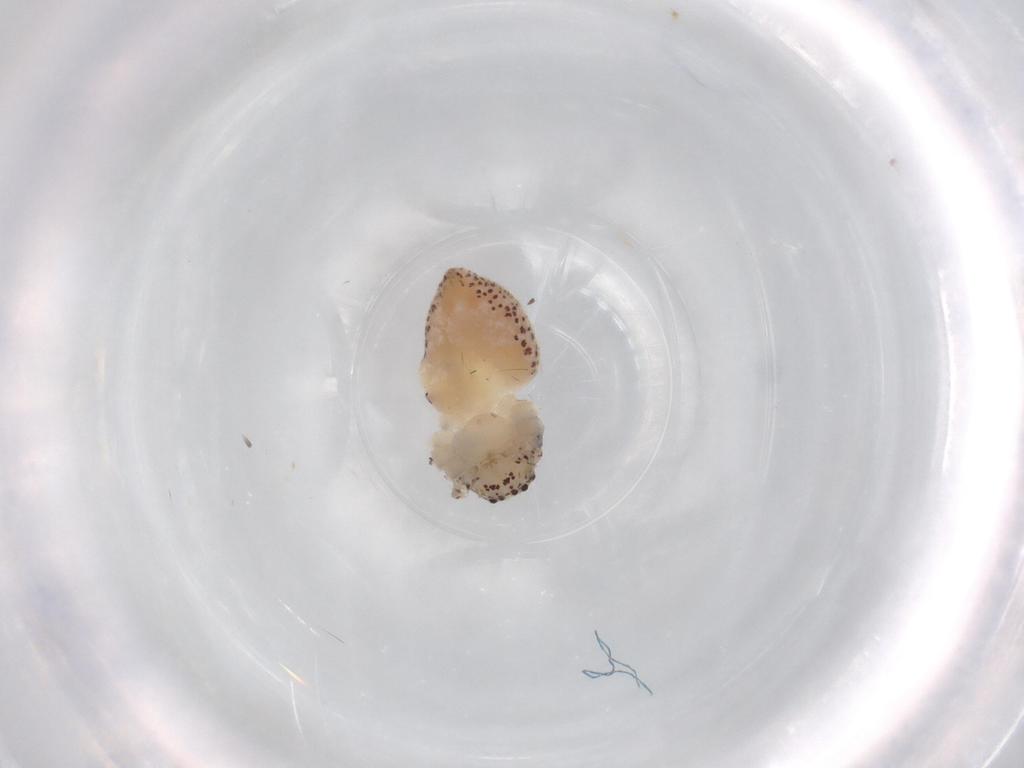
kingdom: Animalia
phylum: Arthropoda
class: Arachnida
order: Araneae
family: Philodromidae
